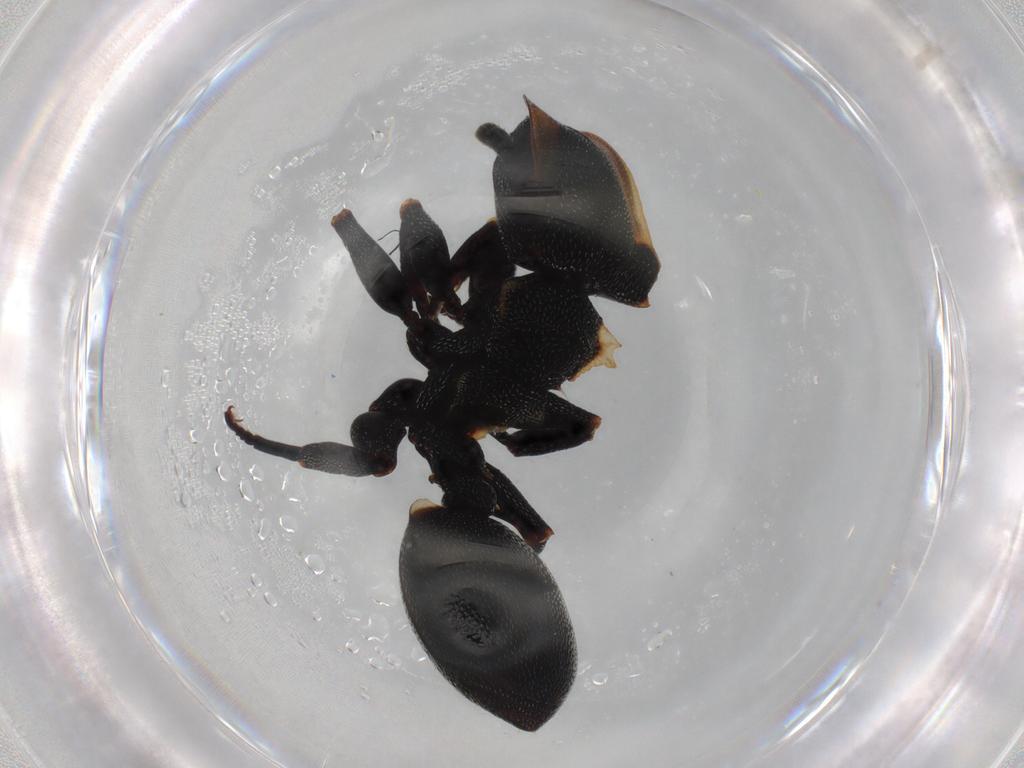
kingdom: Animalia
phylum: Arthropoda
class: Insecta
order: Hymenoptera
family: Formicidae
